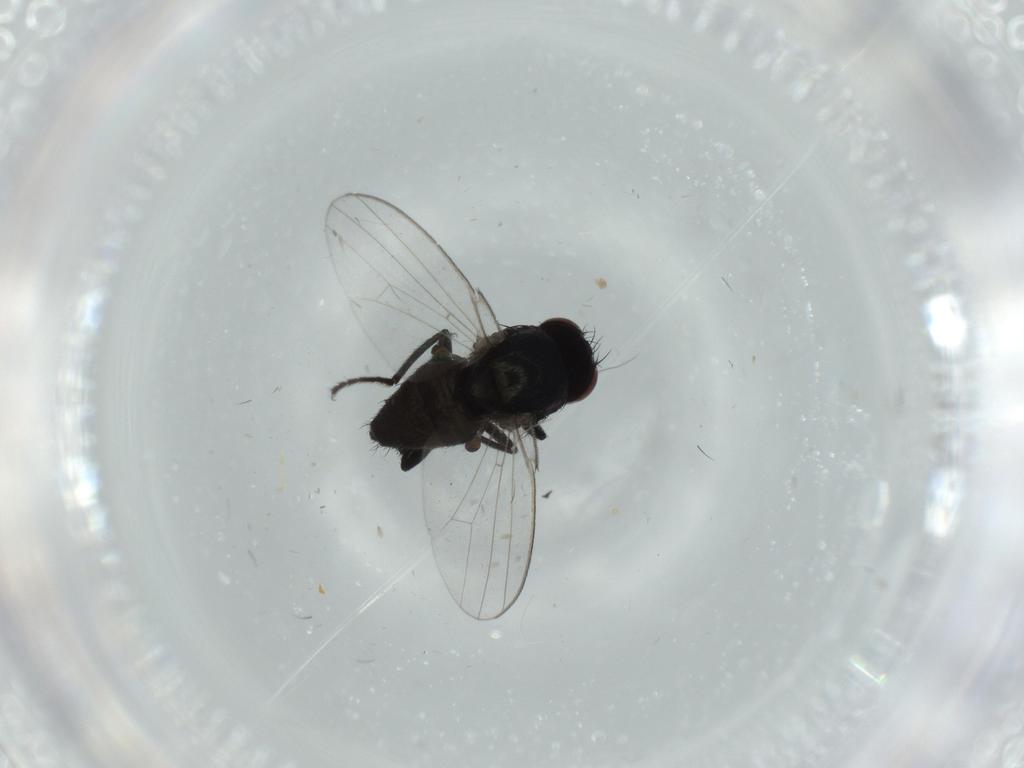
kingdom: Animalia
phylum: Arthropoda
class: Insecta
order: Diptera
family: Milichiidae
